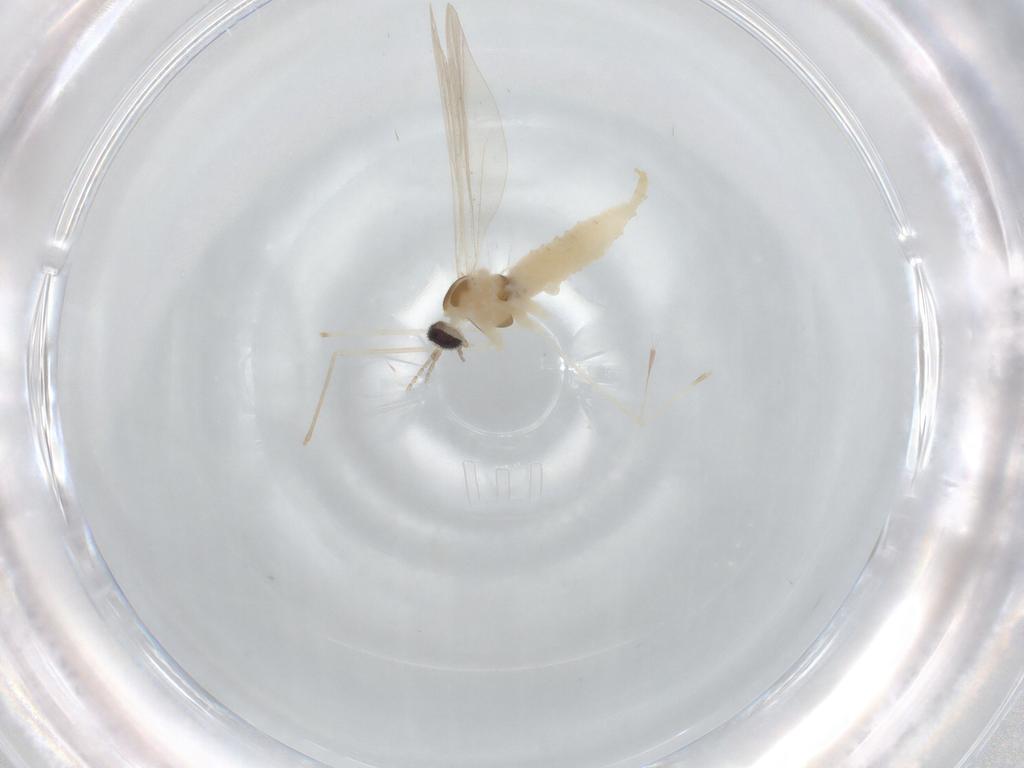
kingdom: Animalia
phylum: Arthropoda
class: Insecta
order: Diptera
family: Cecidomyiidae
